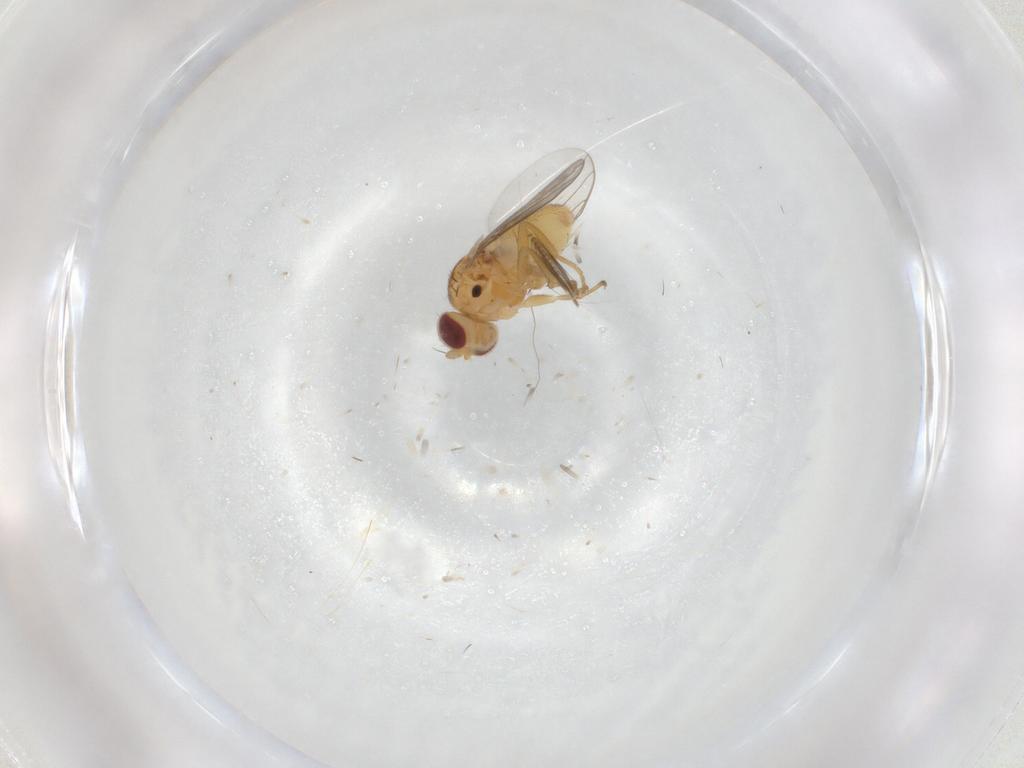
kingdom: Animalia
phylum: Arthropoda
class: Insecta
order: Diptera
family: Chloropidae
